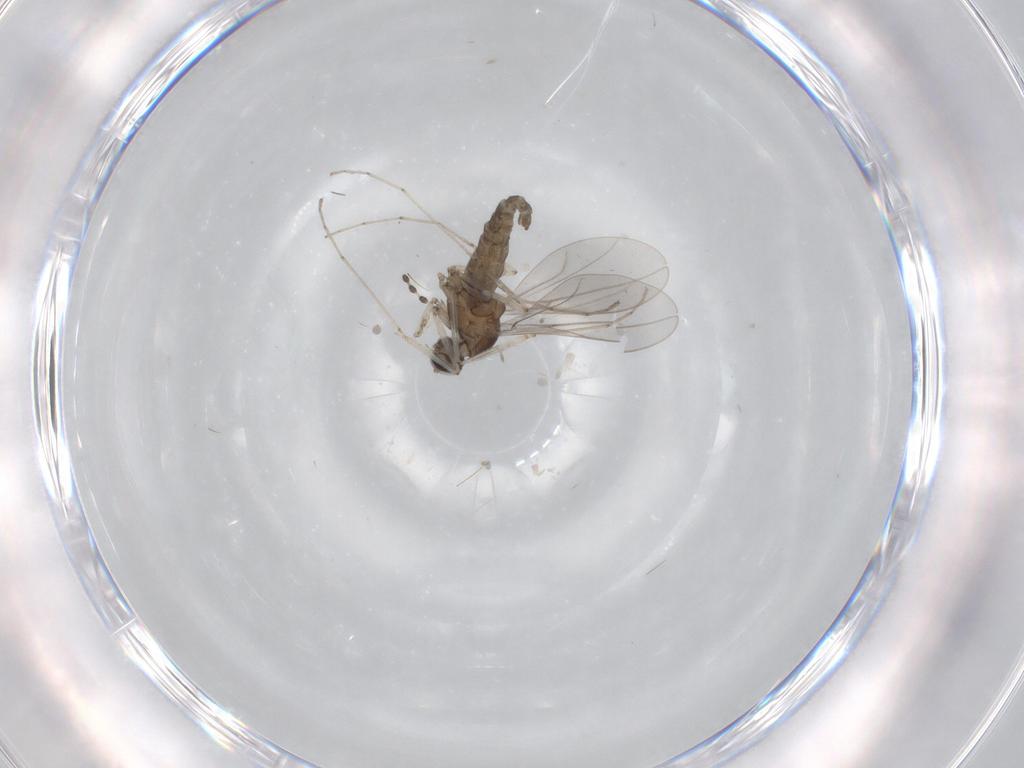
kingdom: Animalia
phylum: Arthropoda
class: Insecta
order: Diptera
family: Cecidomyiidae
